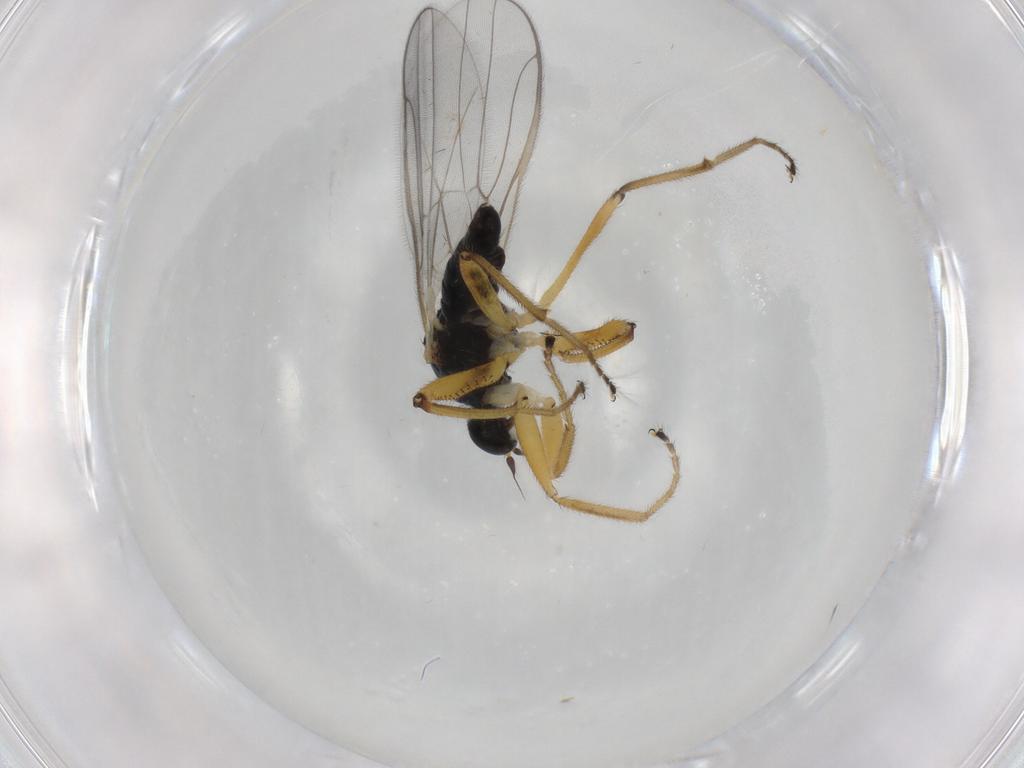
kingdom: Animalia
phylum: Arthropoda
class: Insecta
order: Diptera
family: Hybotidae
